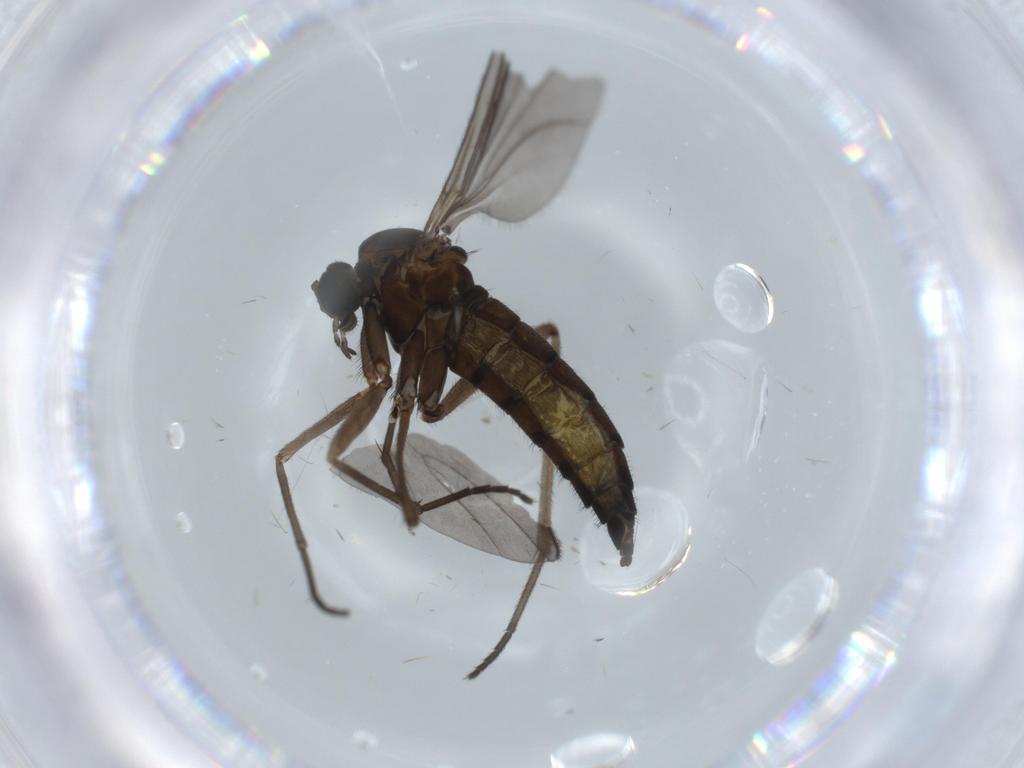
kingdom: Animalia
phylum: Arthropoda
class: Insecta
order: Diptera
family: Sciaridae
